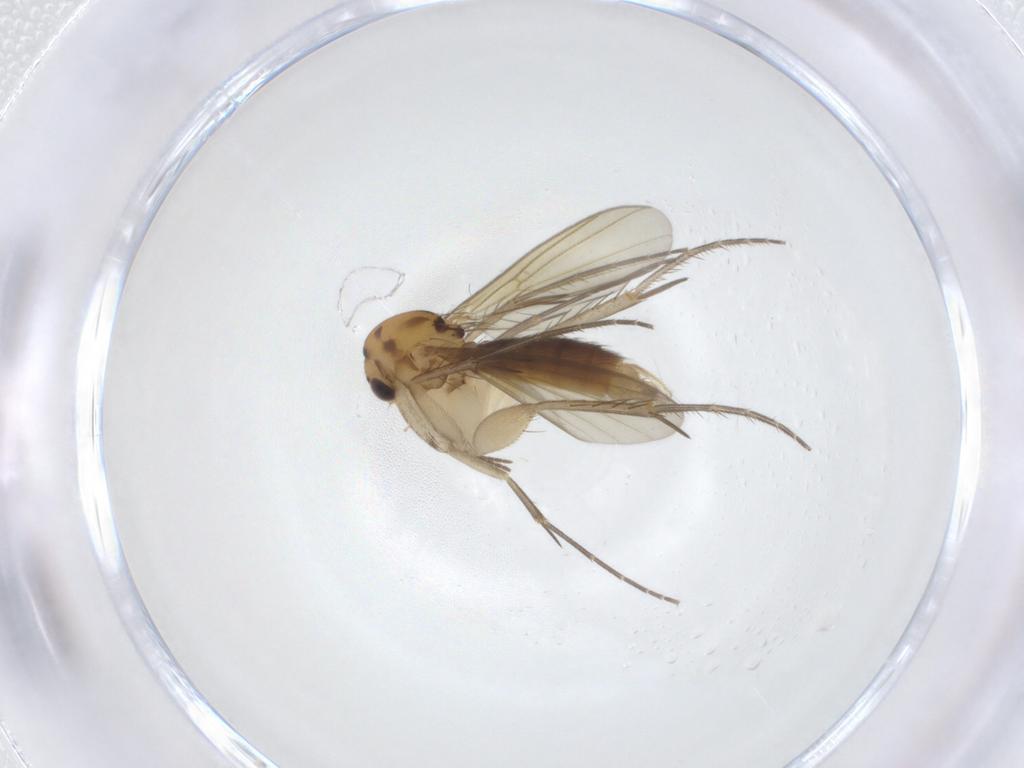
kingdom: Animalia
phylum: Arthropoda
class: Insecta
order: Diptera
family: Mycetophilidae
